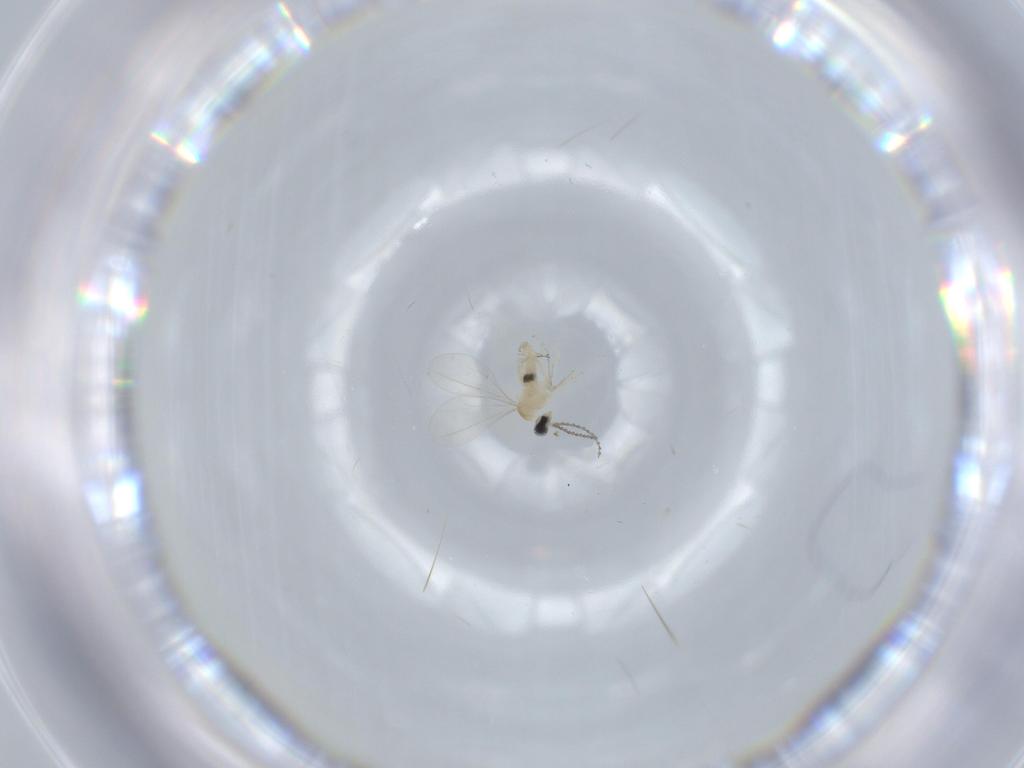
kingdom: Animalia
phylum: Arthropoda
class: Insecta
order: Diptera
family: Cecidomyiidae
